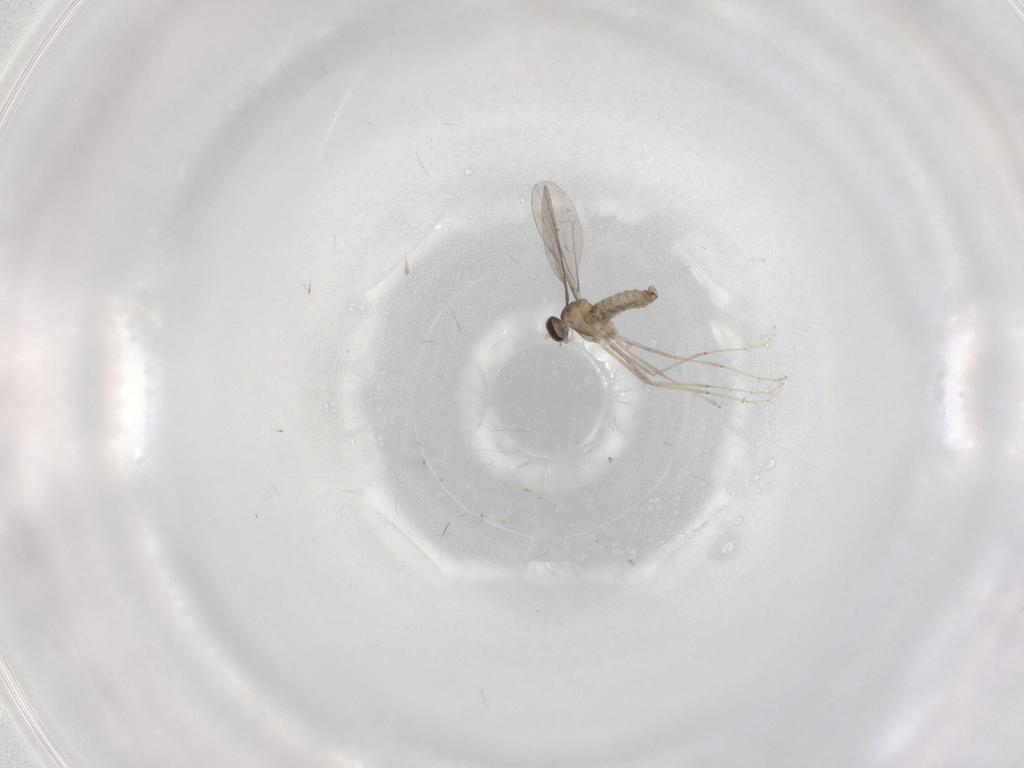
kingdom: Animalia
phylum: Arthropoda
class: Insecta
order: Diptera
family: Cecidomyiidae
